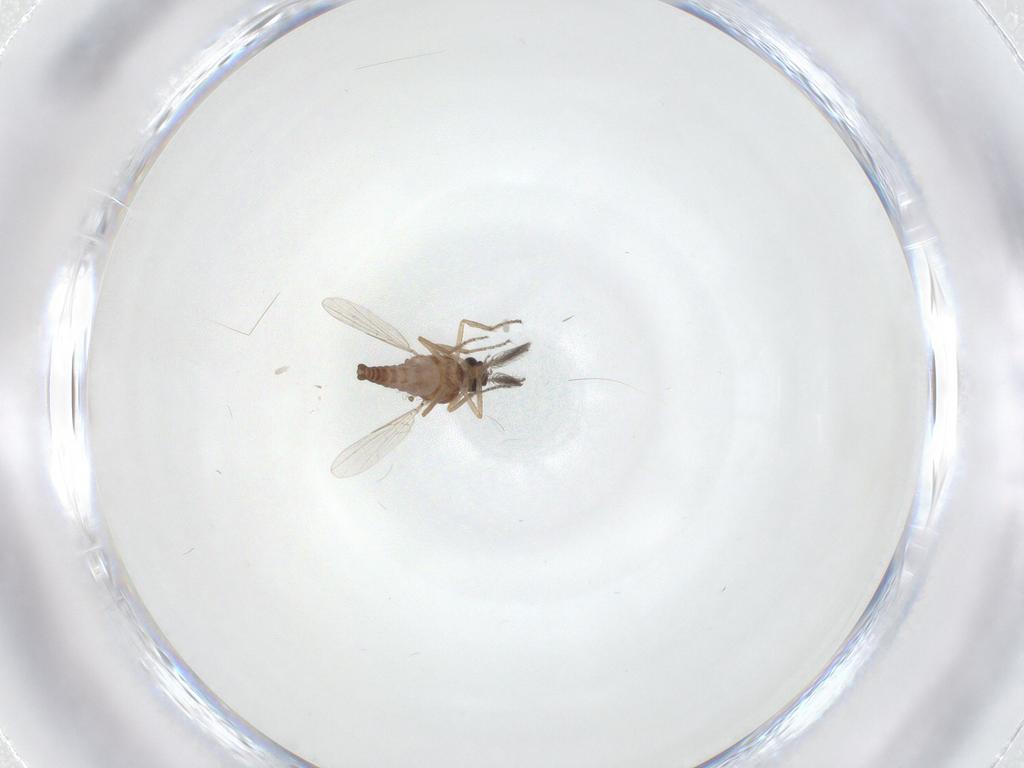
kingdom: Animalia
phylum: Arthropoda
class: Insecta
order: Diptera
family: Ceratopogonidae
